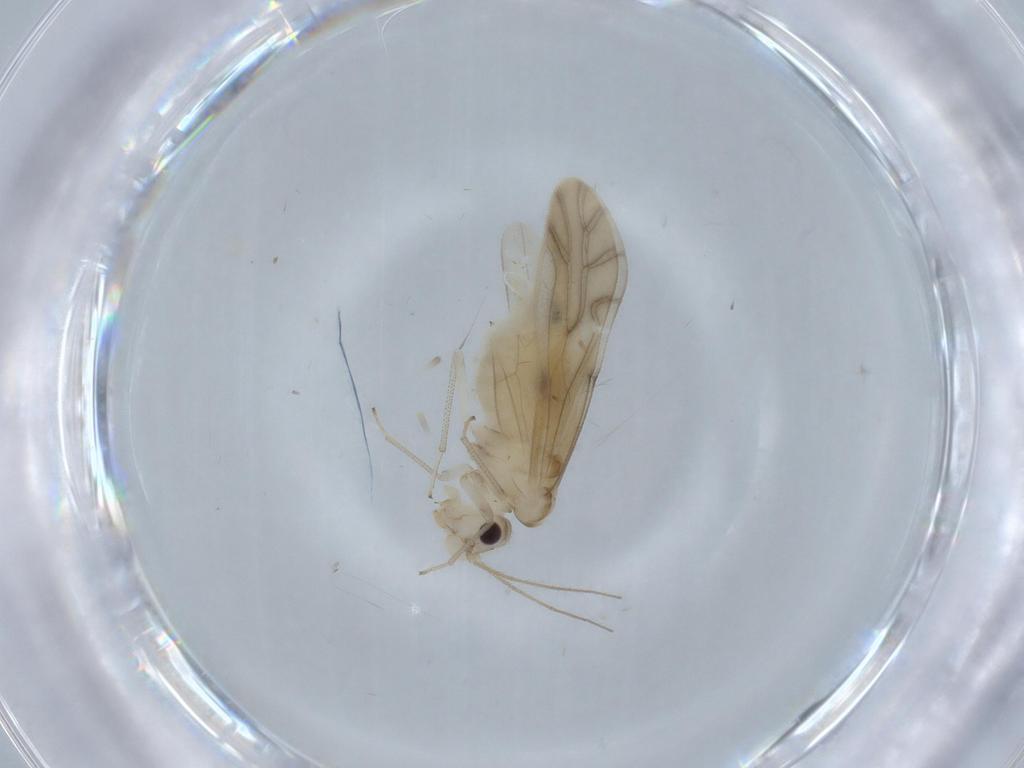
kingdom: Animalia
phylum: Arthropoda
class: Insecta
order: Psocodea
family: Caeciliusidae
